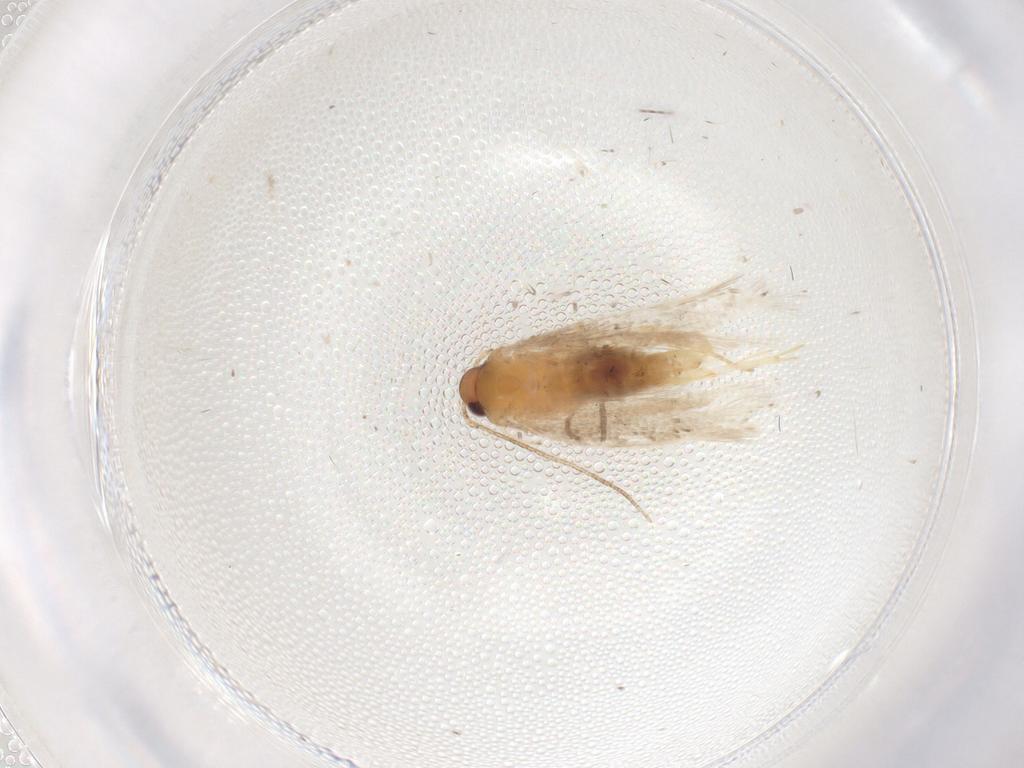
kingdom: Animalia
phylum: Arthropoda
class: Insecta
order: Lepidoptera
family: Gelechiidae
